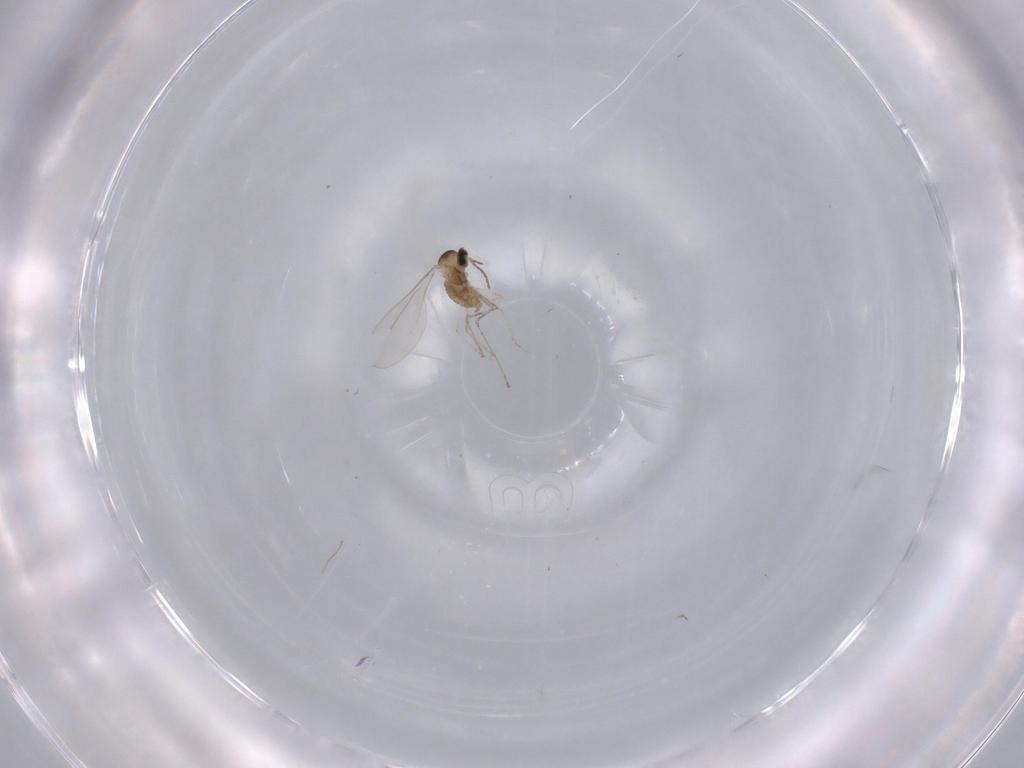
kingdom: Animalia
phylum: Arthropoda
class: Insecta
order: Diptera
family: Cecidomyiidae
